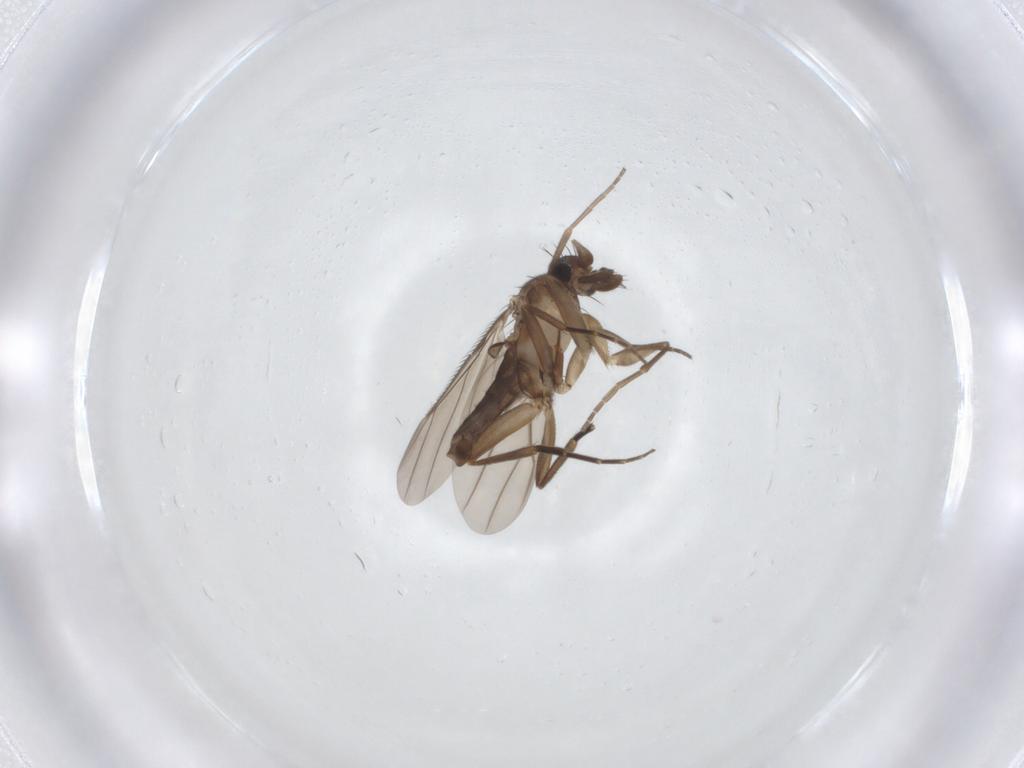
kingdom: Animalia
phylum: Arthropoda
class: Insecta
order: Diptera
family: Phoridae
